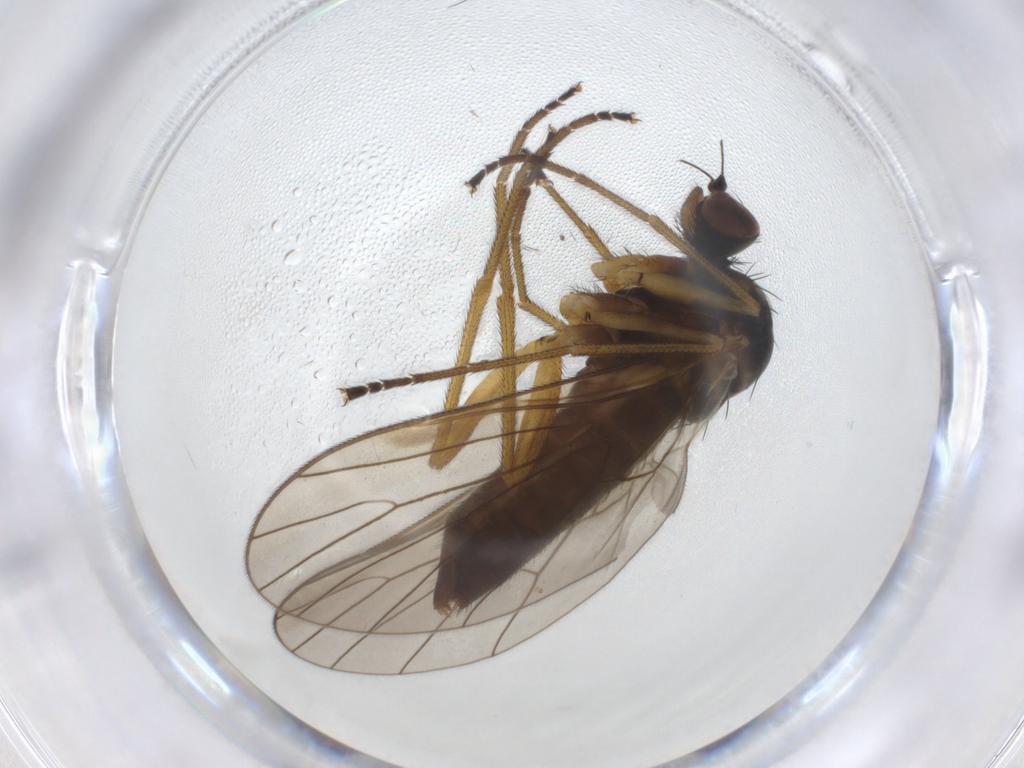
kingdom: Animalia
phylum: Arthropoda
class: Insecta
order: Diptera
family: Brachystomatidae
